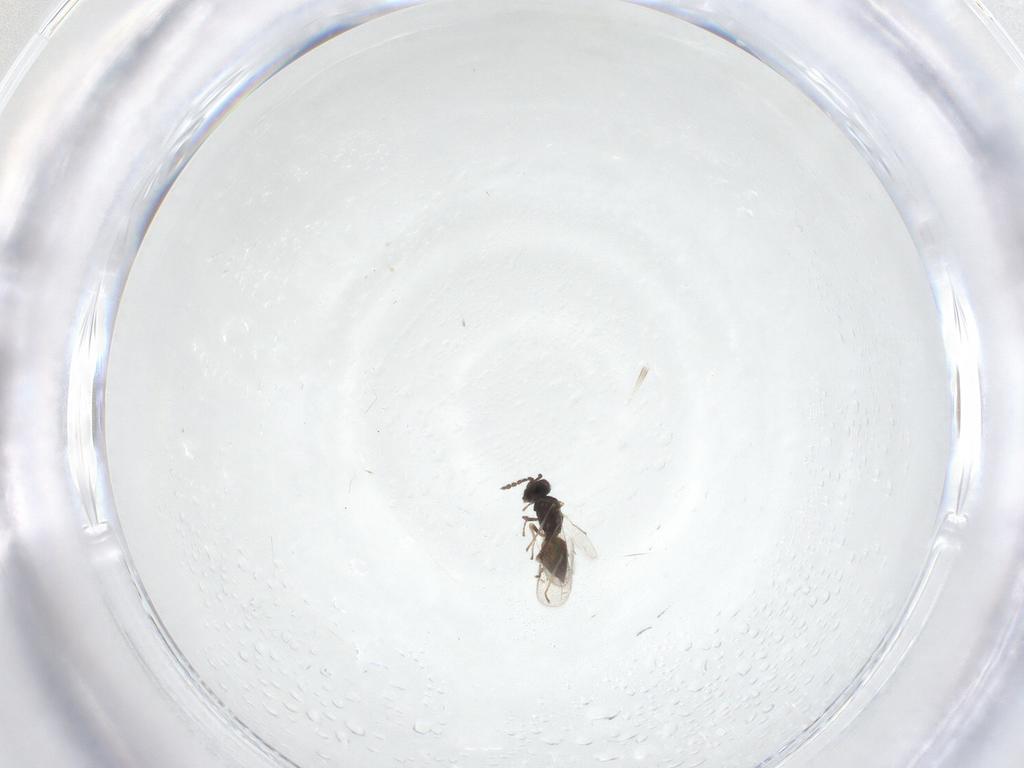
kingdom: Animalia
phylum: Arthropoda
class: Insecta
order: Hymenoptera
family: Eulophidae
